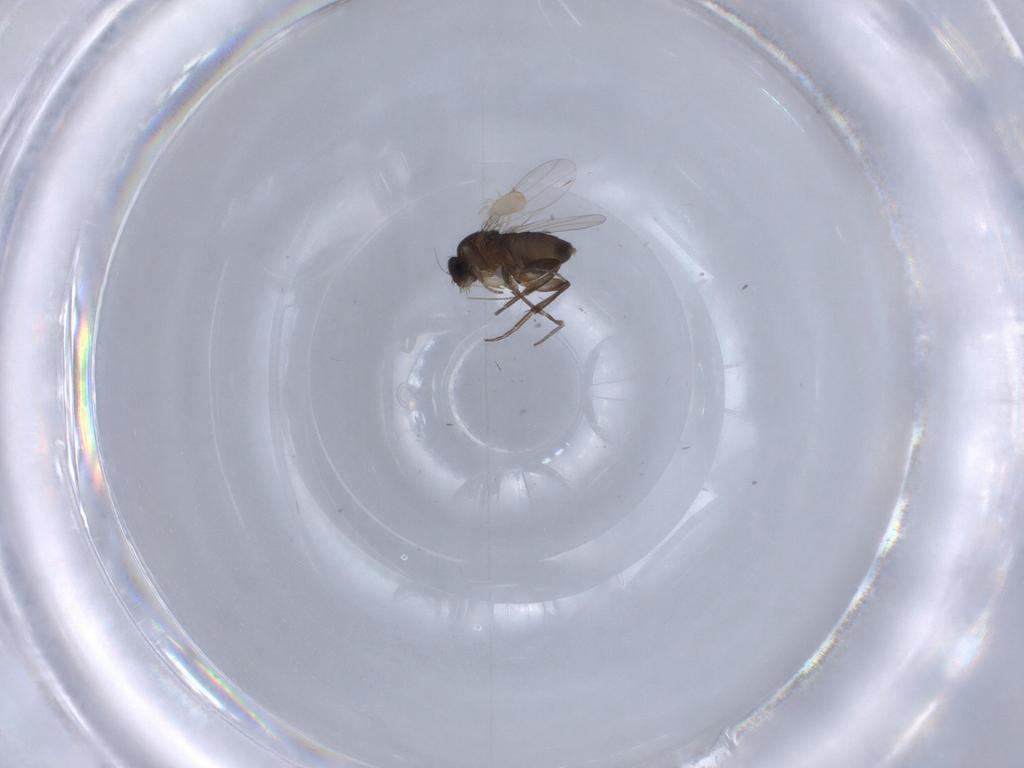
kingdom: Animalia
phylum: Arthropoda
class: Insecta
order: Diptera
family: Phoridae
